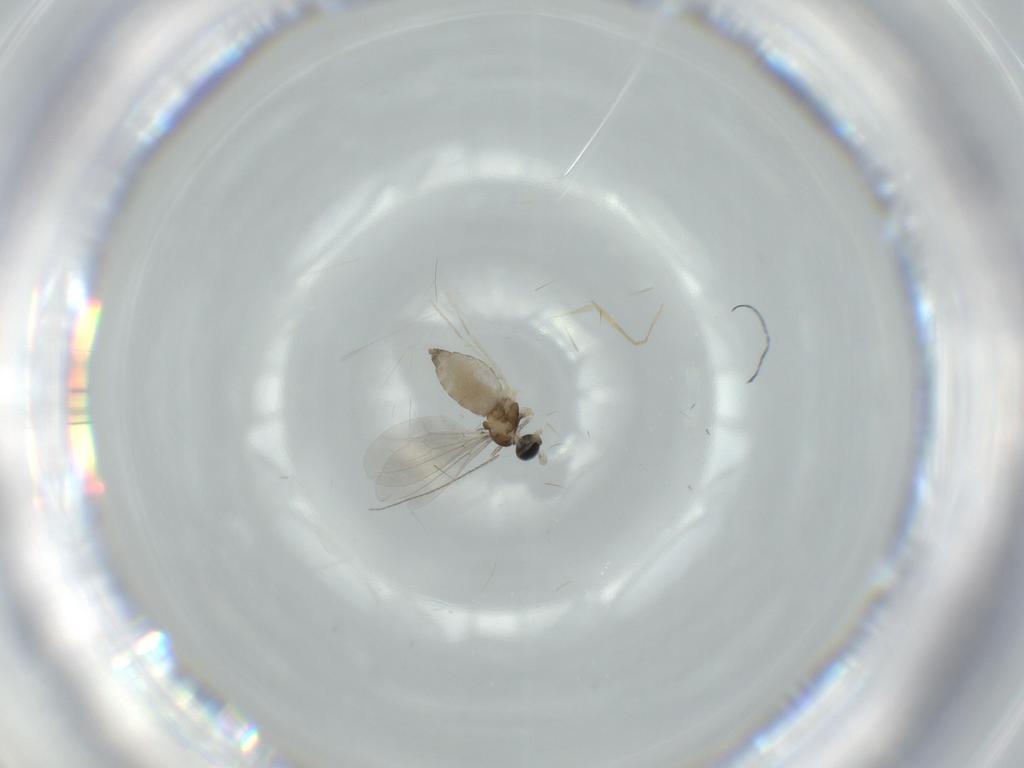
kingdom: Animalia
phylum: Arthropoda
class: Insecta
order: Diptera
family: Cecidomyiidae
